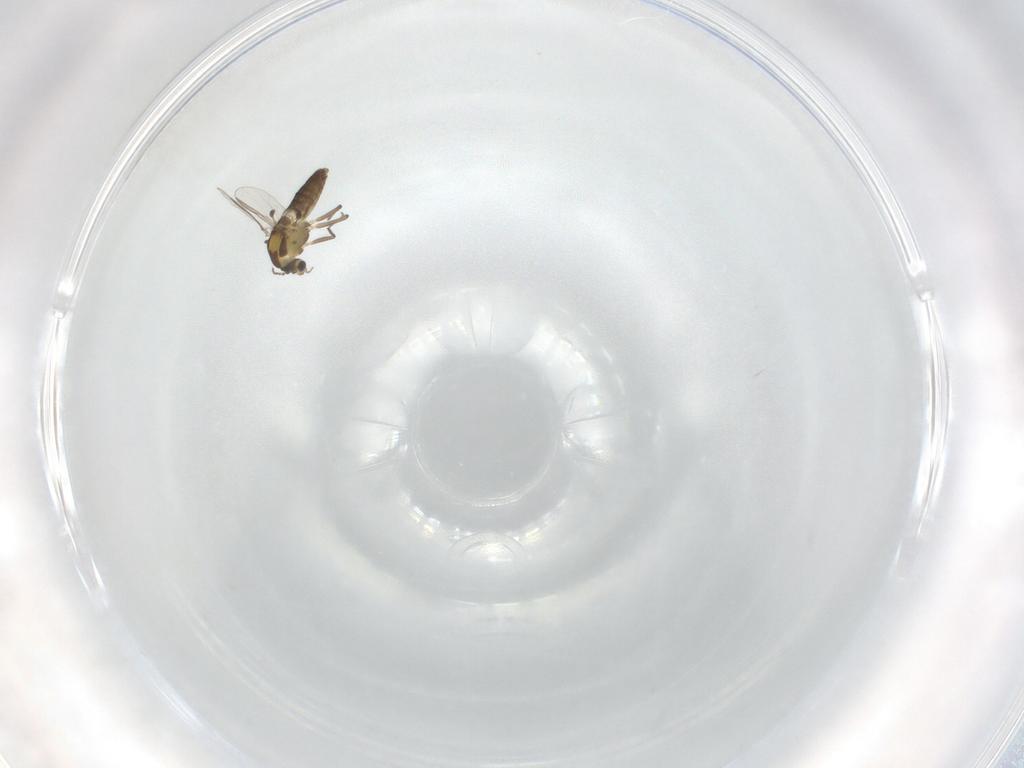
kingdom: Animalia
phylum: Arthropoda
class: Insecta
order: Diptera
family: Chironomidae
